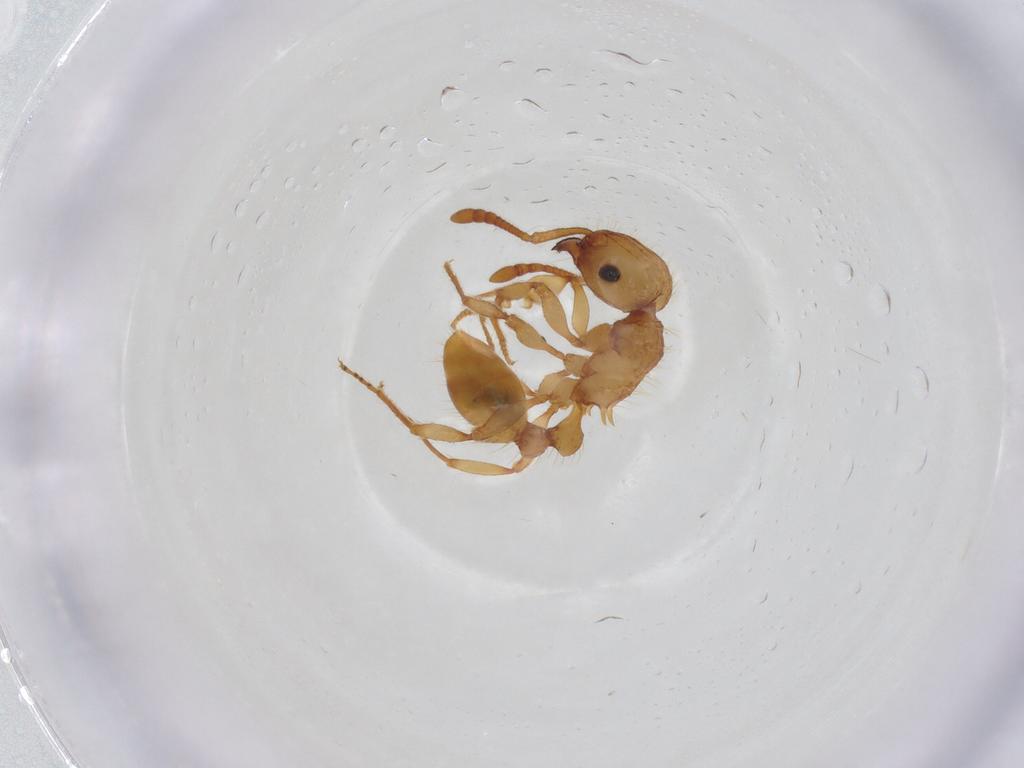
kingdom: Animalia
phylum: Arthropoda
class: Insecta
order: Hymenoptera
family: Formicidae
